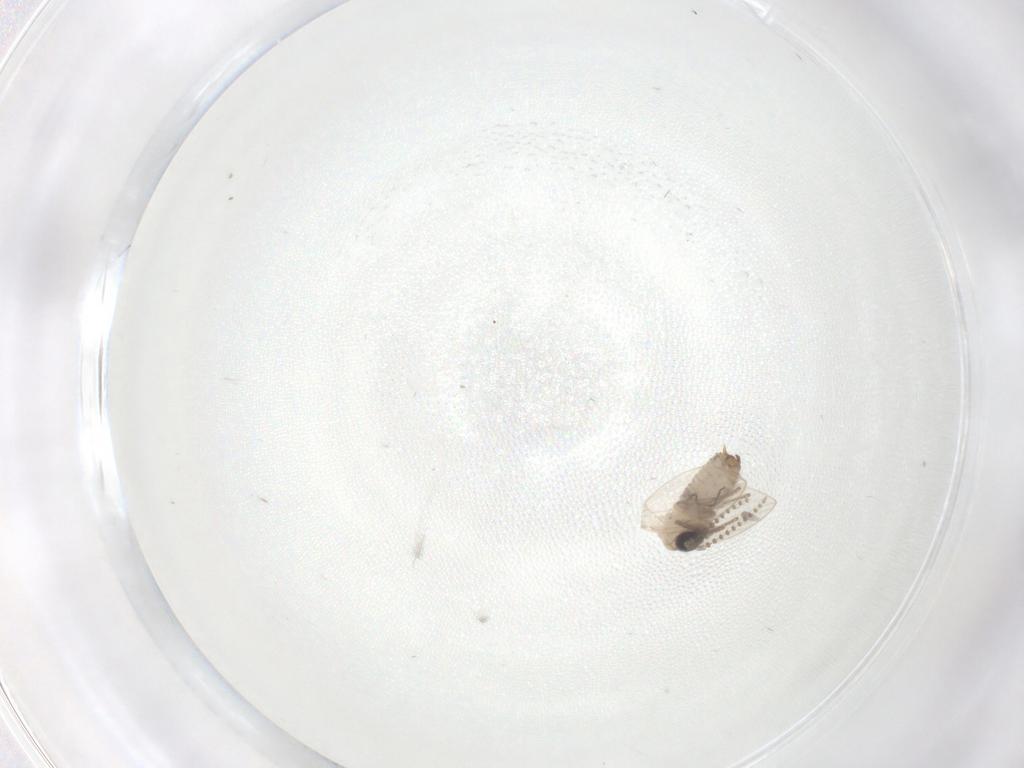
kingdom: Animalia
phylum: Arthropoda
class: Insecta
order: Diptera
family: Psychodidae
